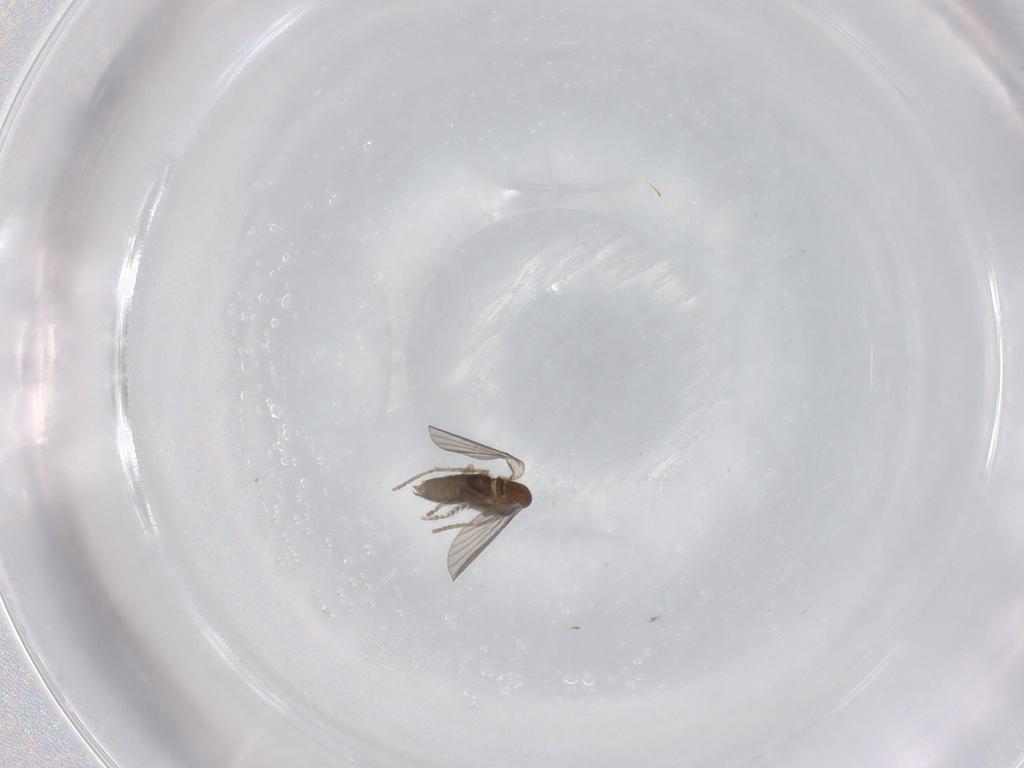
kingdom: Animalia
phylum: Arthropoda
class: Insecta
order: Diptera
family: Phoridae
